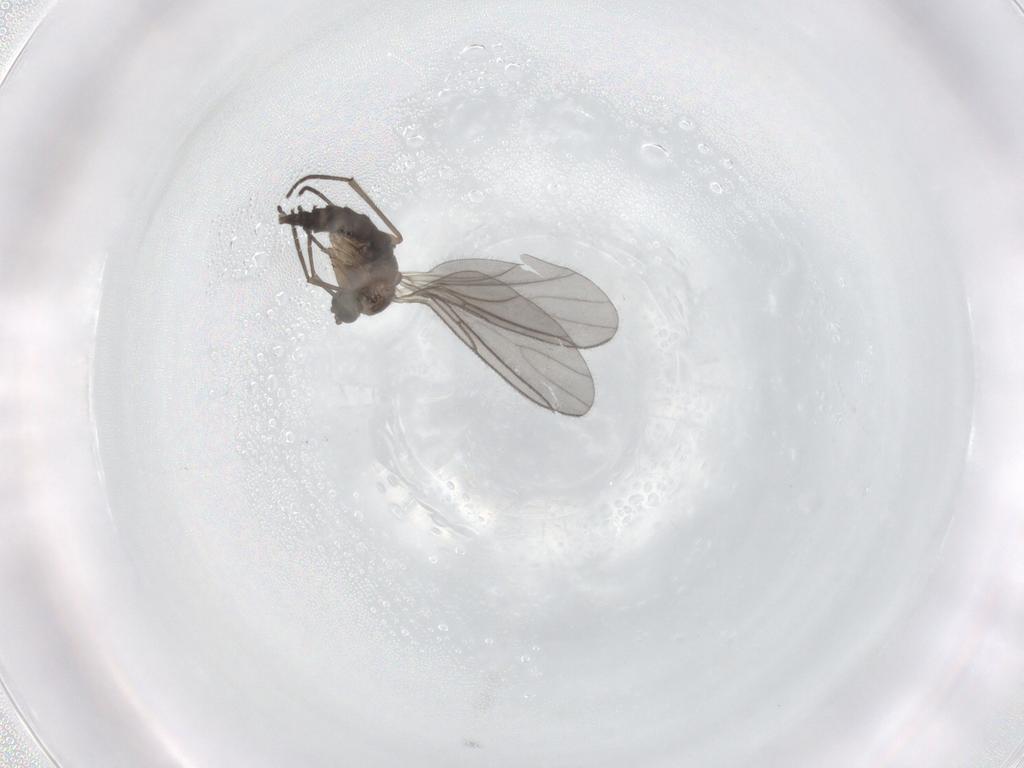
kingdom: Animalia
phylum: Arthropoda
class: Insecta
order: Diptera
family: Sciaridae
